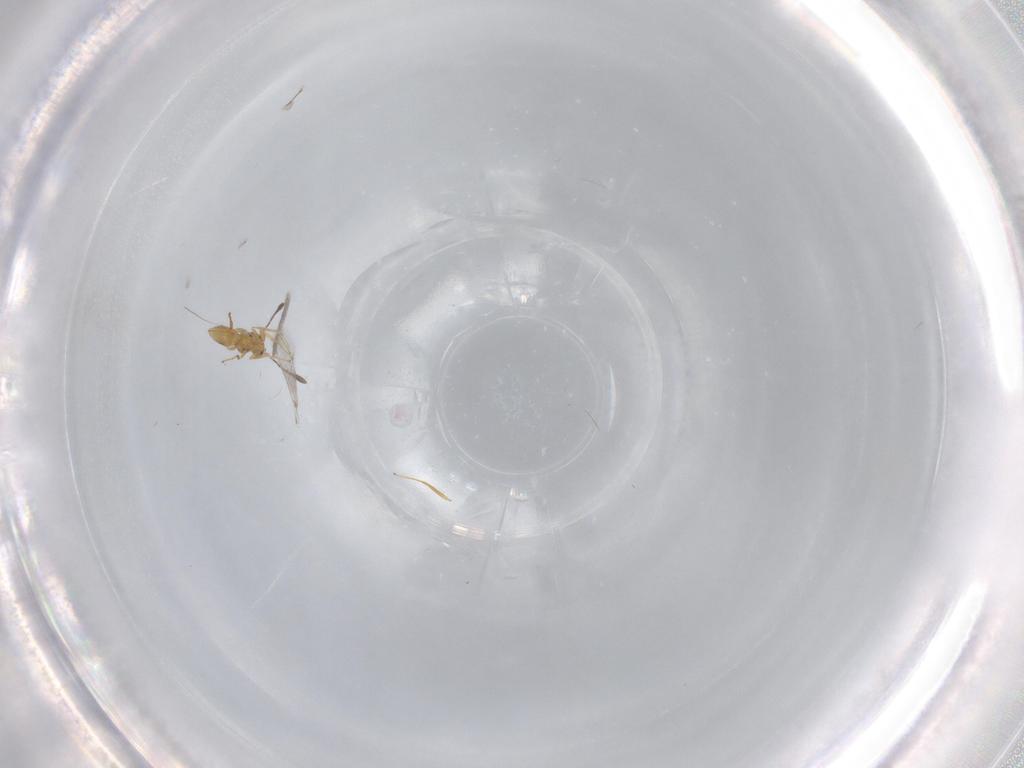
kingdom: Animalia
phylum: Arthropoda
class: Insecta
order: Hymenoptera
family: Mymaridae
